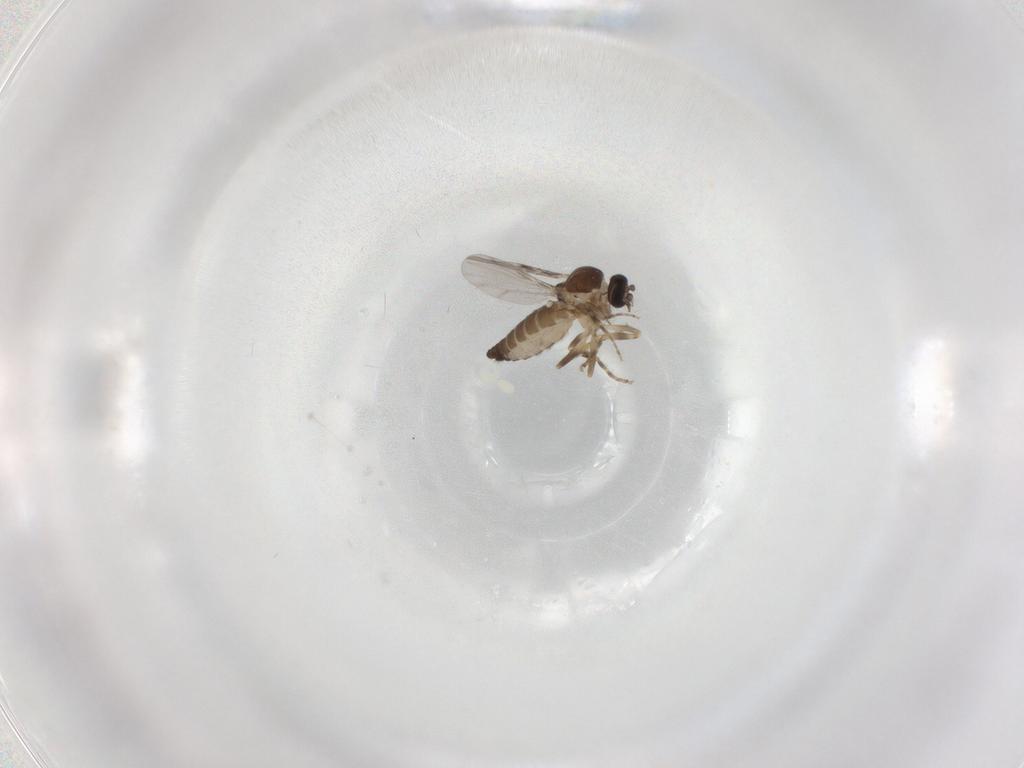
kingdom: Animalia
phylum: Arthropoda
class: Insecta
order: Diptera
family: Ceratopogonidae
